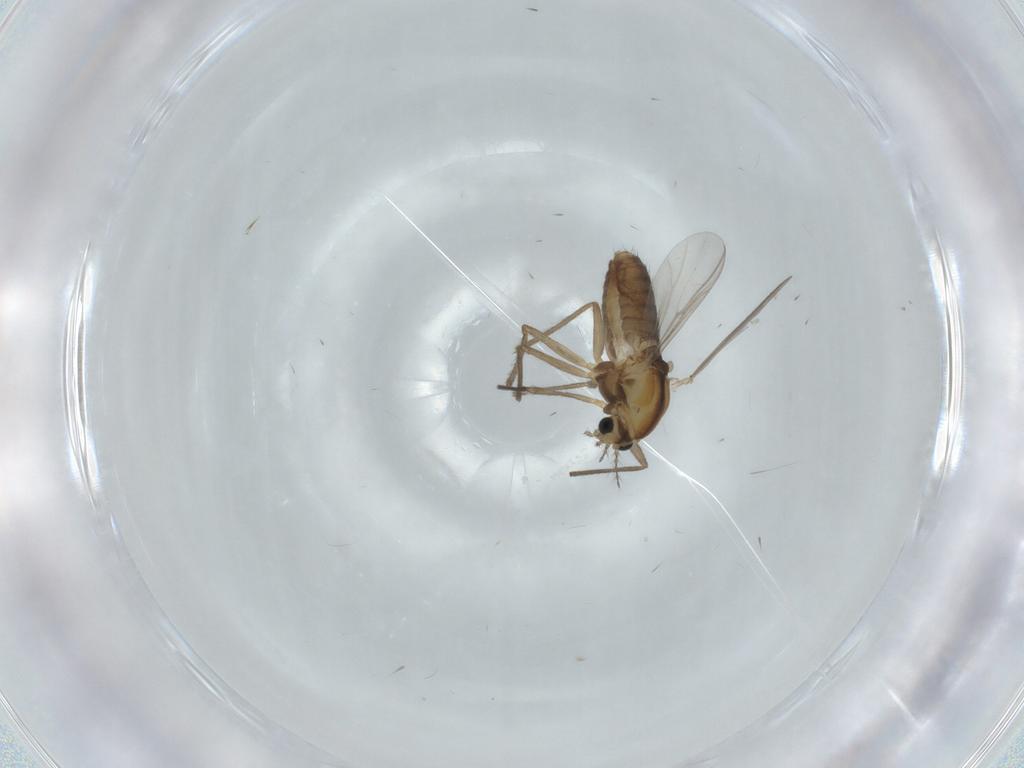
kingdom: Animalia
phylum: Arthropoda
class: Insecta
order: Diptera
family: Chironomidae
